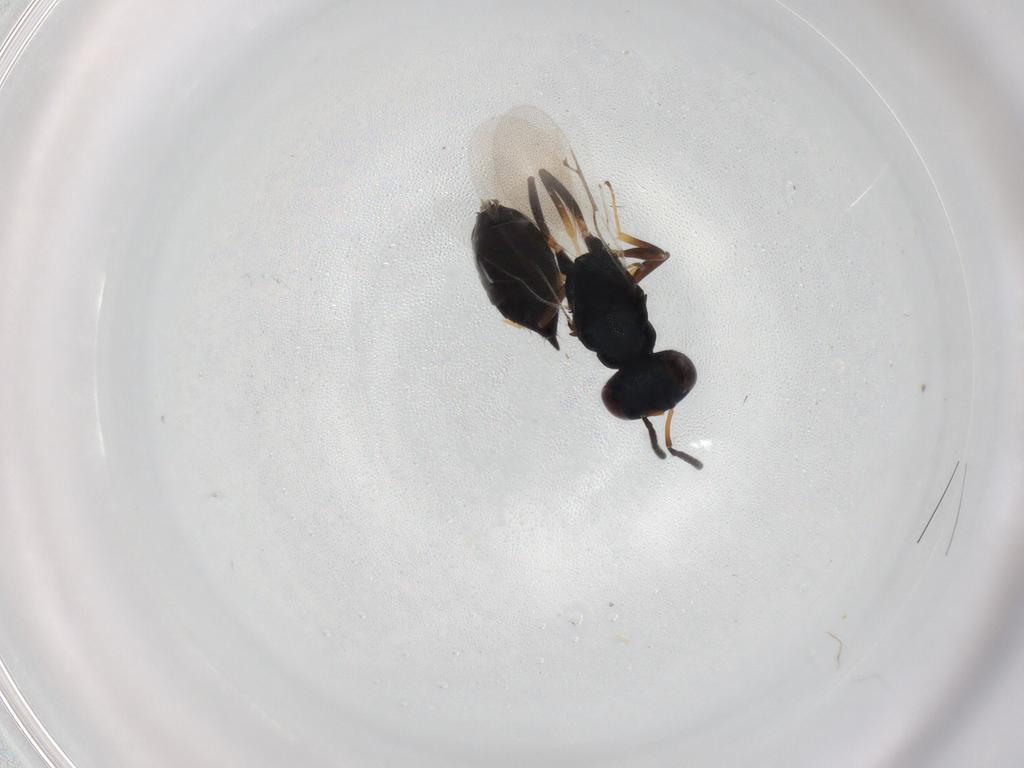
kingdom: Animalia
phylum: Arthropoda
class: Insecta
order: Hymenoptera
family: Pteromalidae
